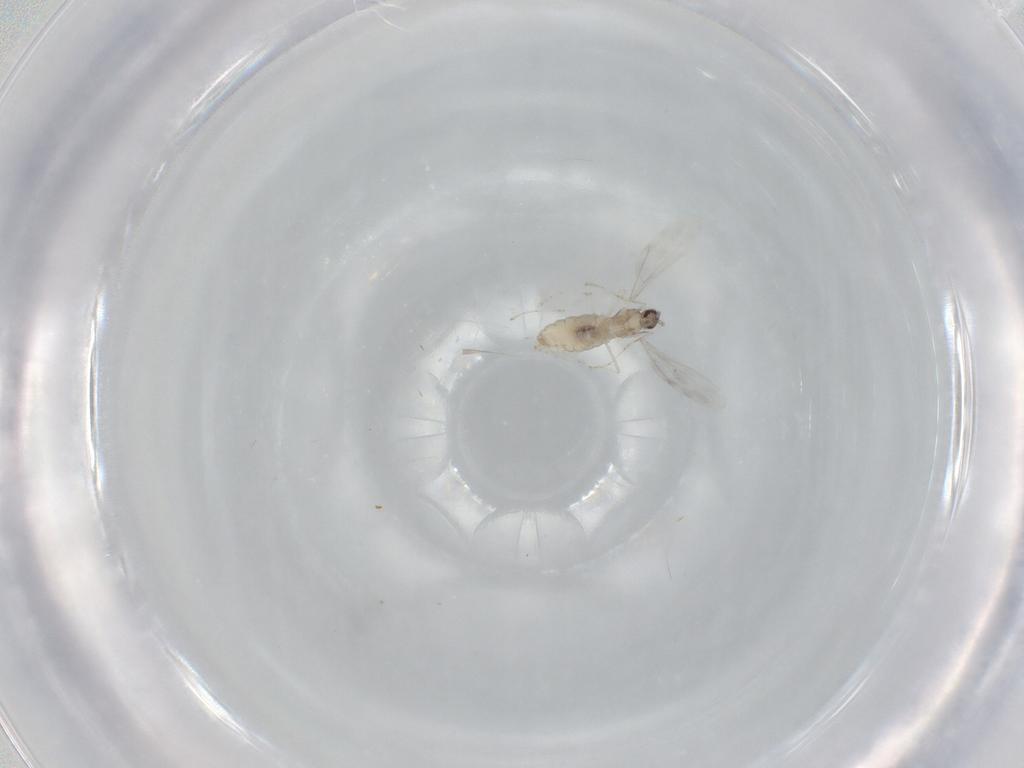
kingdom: Animalia
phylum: Arthropoda
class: Insecta
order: Diptera
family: Cecidomyiidae
